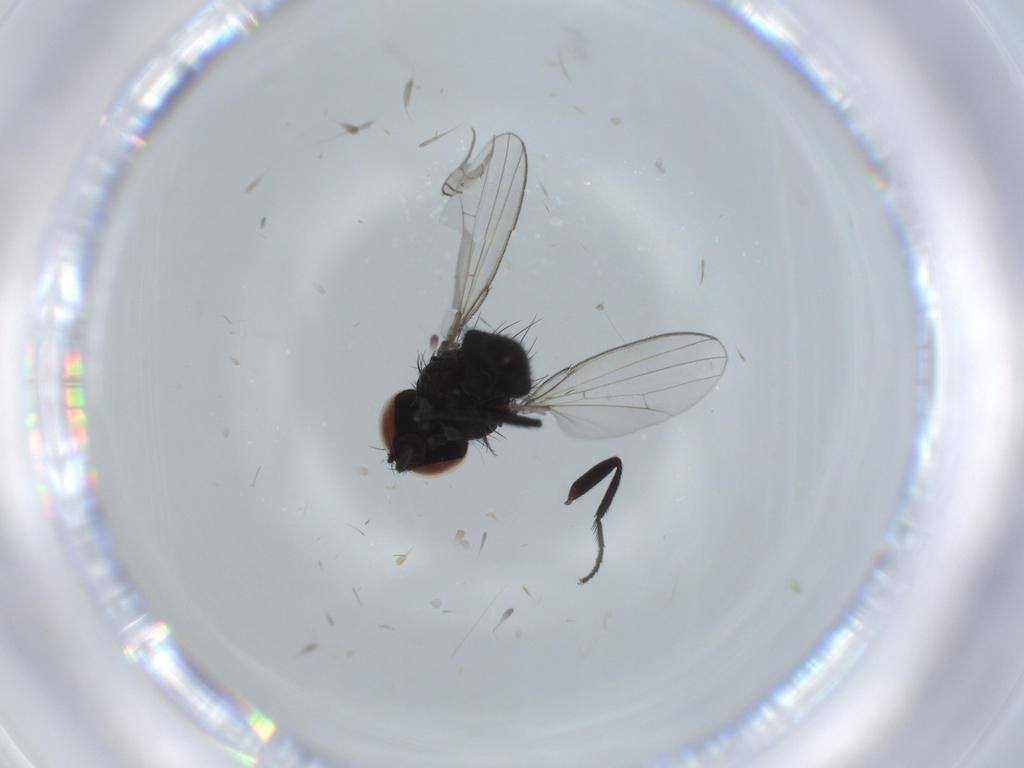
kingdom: Animalia
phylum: Arthropoda
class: Insecta
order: Diptera
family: Milichiidae
